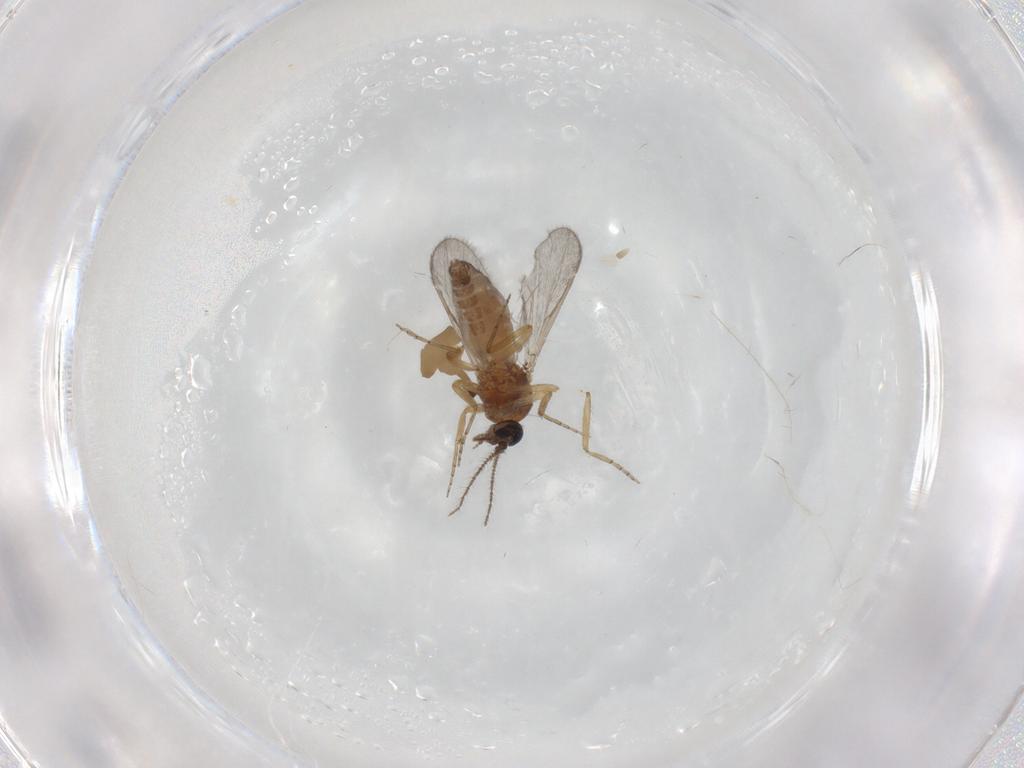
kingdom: Animalia
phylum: Arthropoda
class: Insecta
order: Diptera
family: Ceratopogonidae
